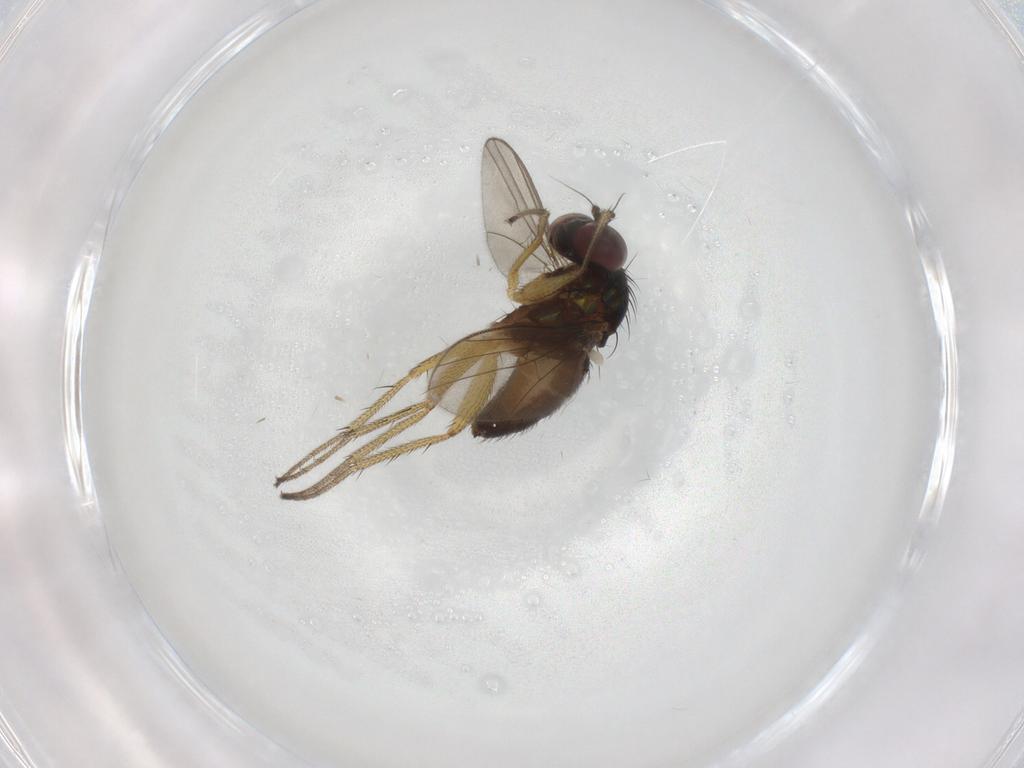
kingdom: Animalia
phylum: Arthropoda
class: Insecta
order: Diptera
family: Dolichopodidae
